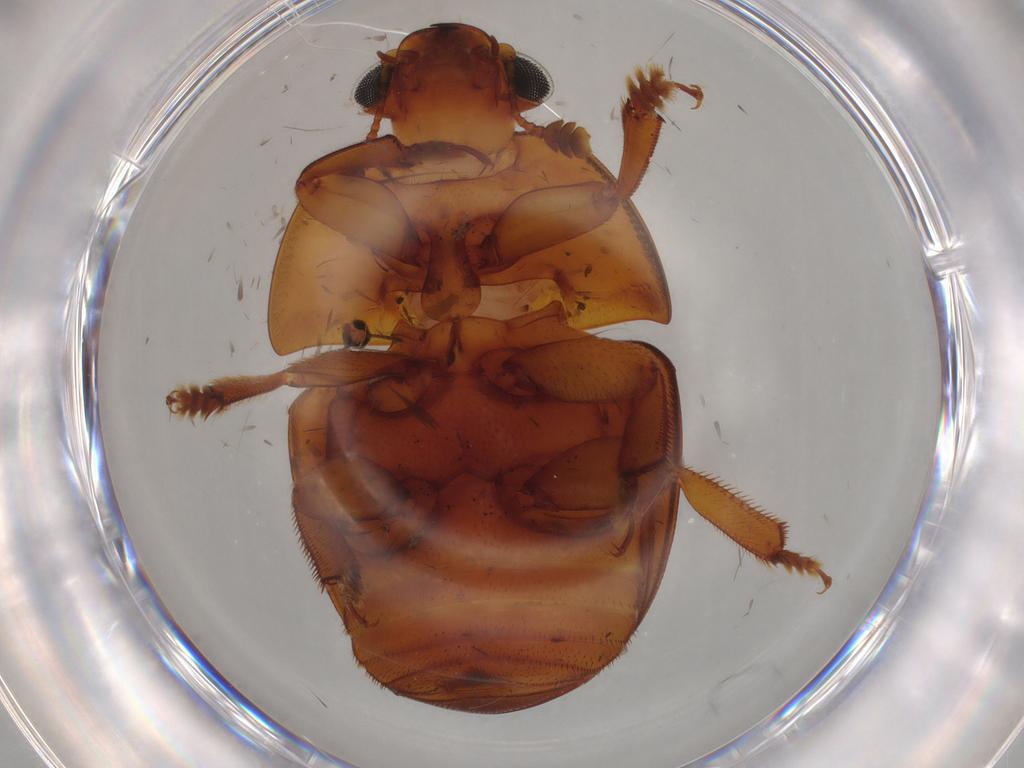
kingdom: Animalia
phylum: Arthropoda
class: Insecta
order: Coleoptera
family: Nitidulidae
